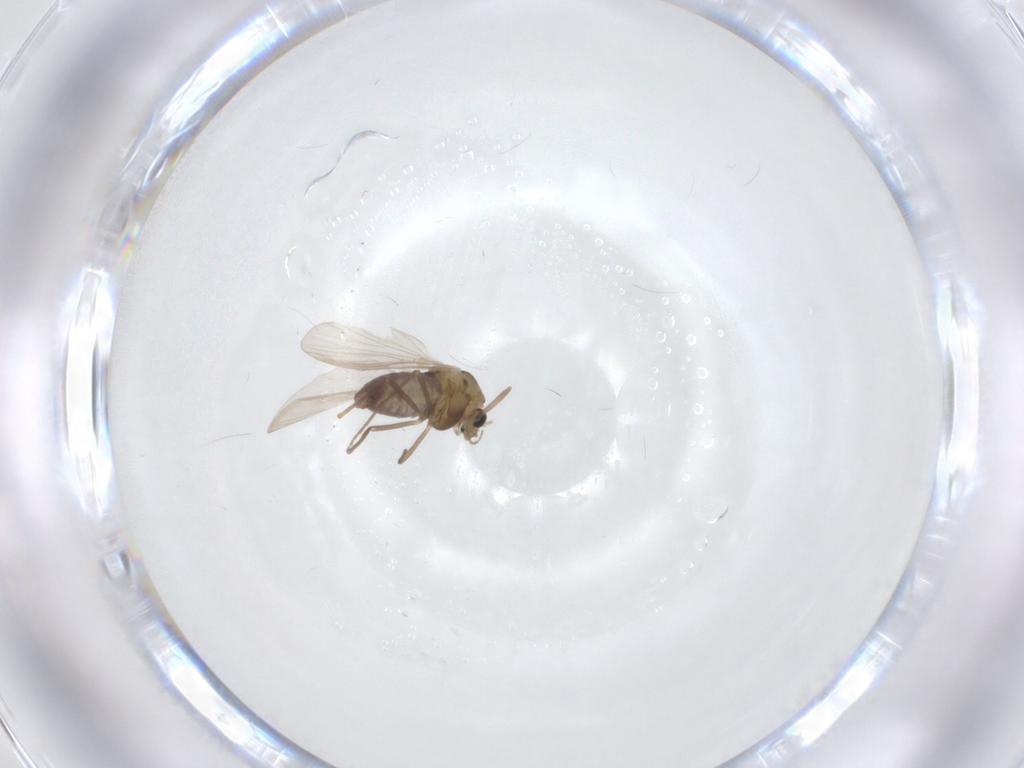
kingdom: Animalia
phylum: Arthropoda
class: Insecta
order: Diptera
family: Chironomidae
